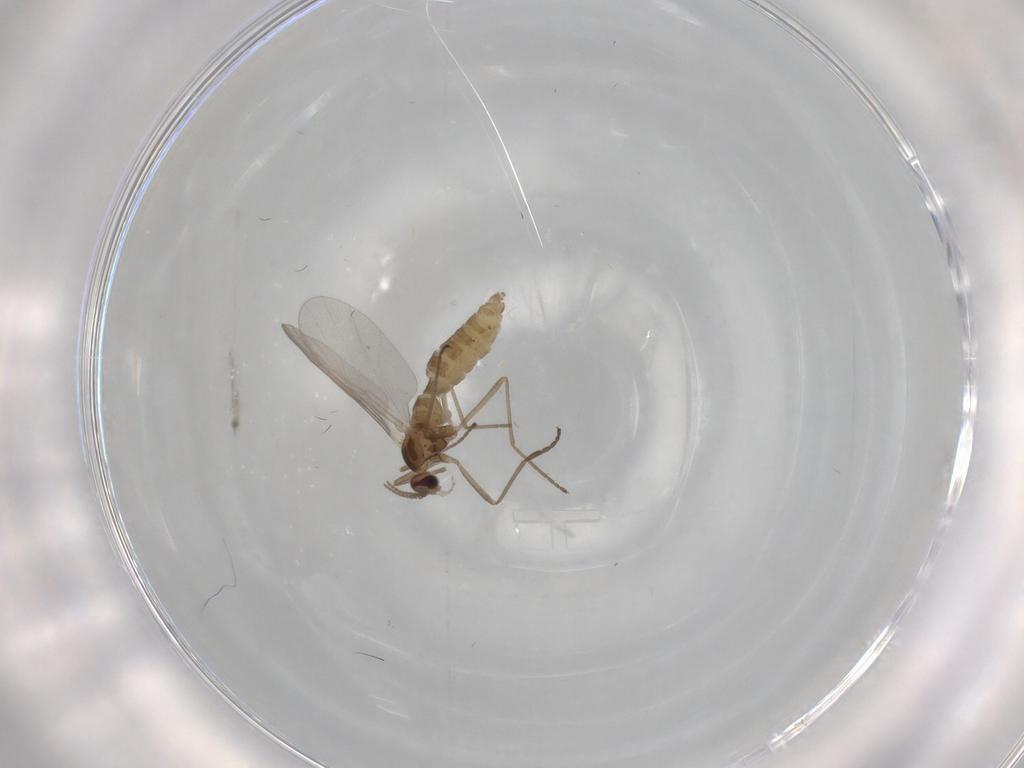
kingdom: Animalia
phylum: Arthropoda
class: Insecta
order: Diptera
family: Cecidomyiidae
